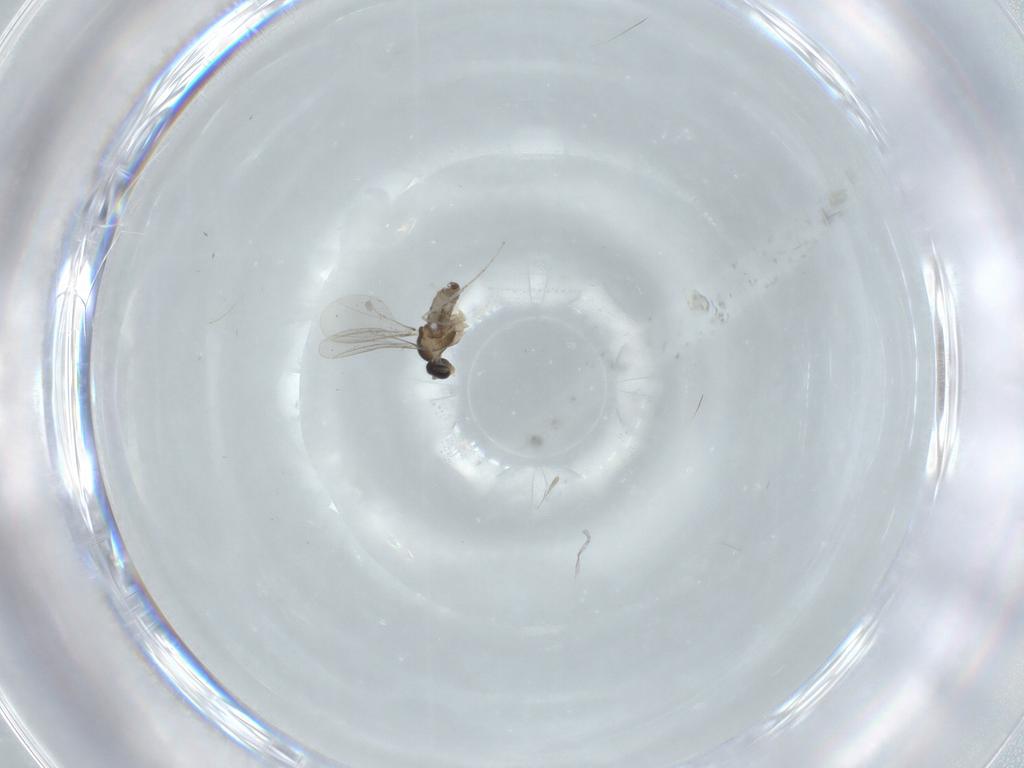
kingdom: Animalia
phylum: Arthropoda
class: Insecta
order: Diptera
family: Cecidomyiidae
